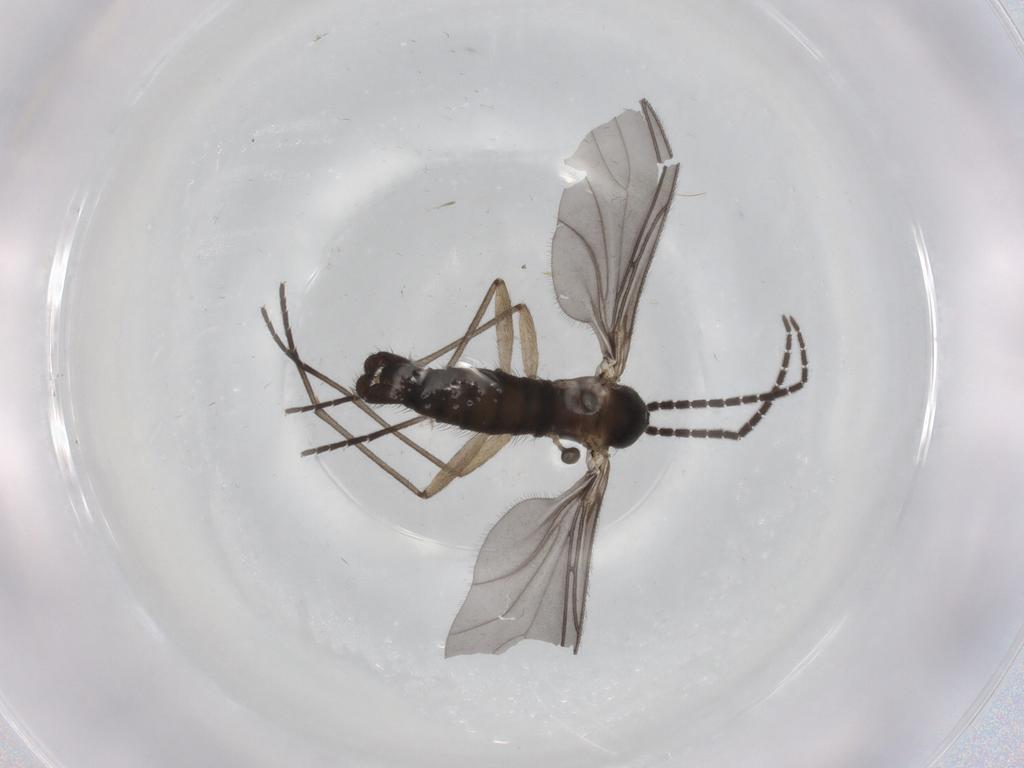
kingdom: Animalia
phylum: Arthropoda
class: Insecta
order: Diptera
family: Sciaridae
